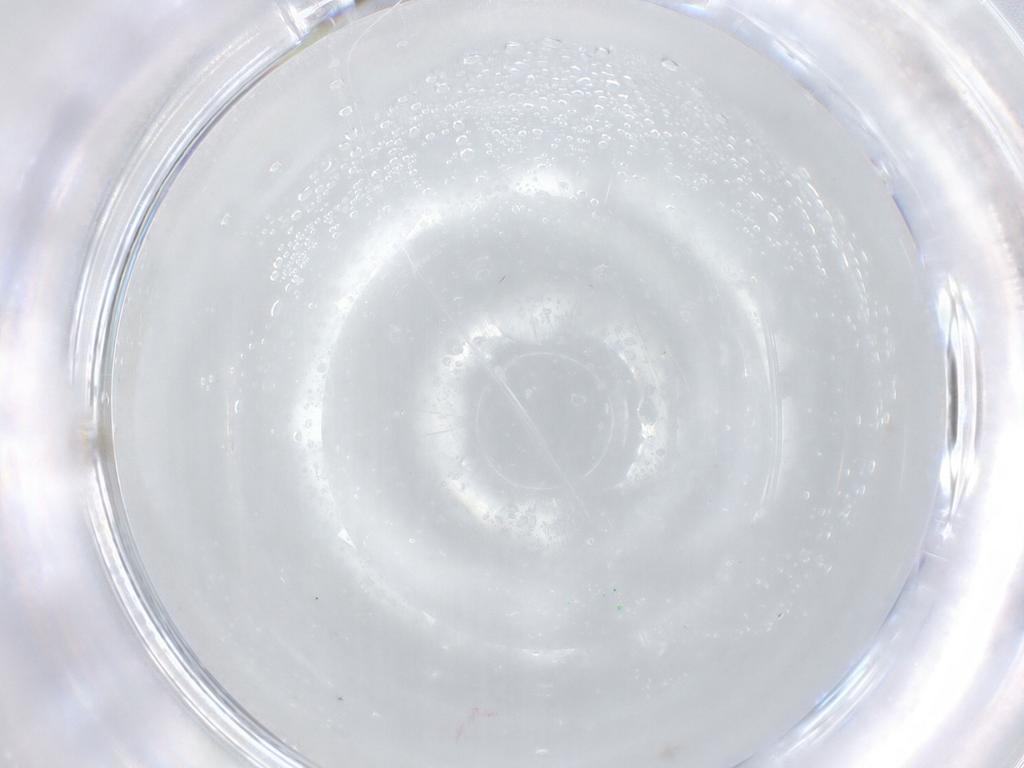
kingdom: Animalia
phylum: Arthropoda
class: Insecta
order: Diptera
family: Cecidomyiidae
